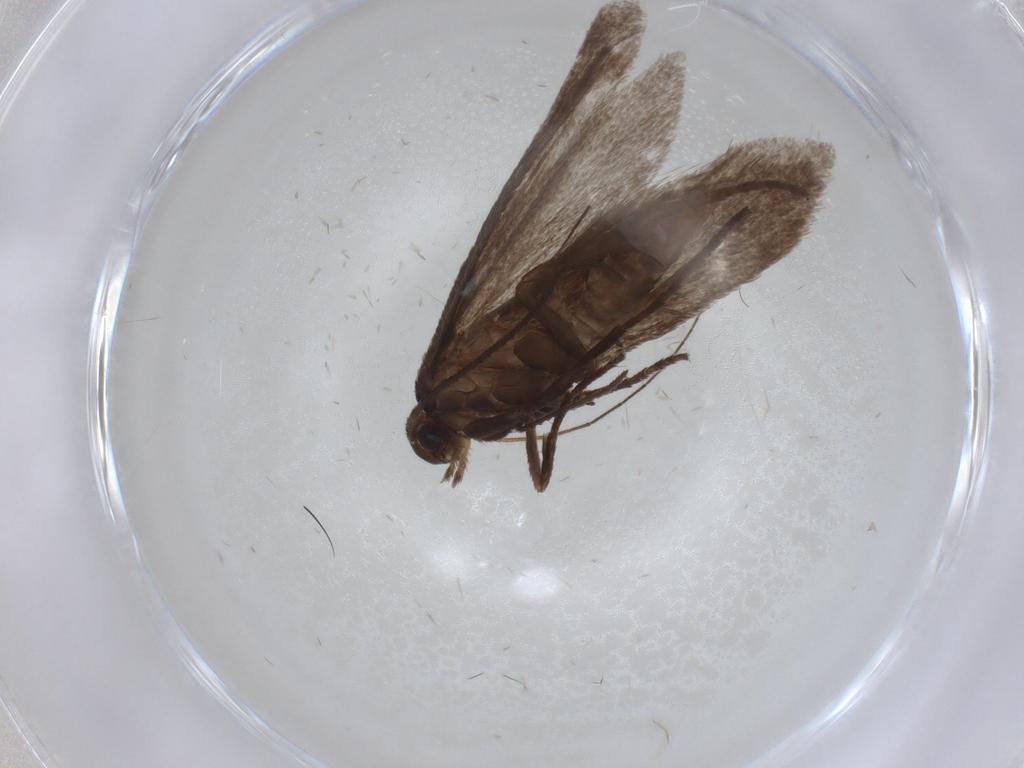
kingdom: Animalia
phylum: Arthropoda
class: Insecta
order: Lepidoptera
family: Limacodidae
